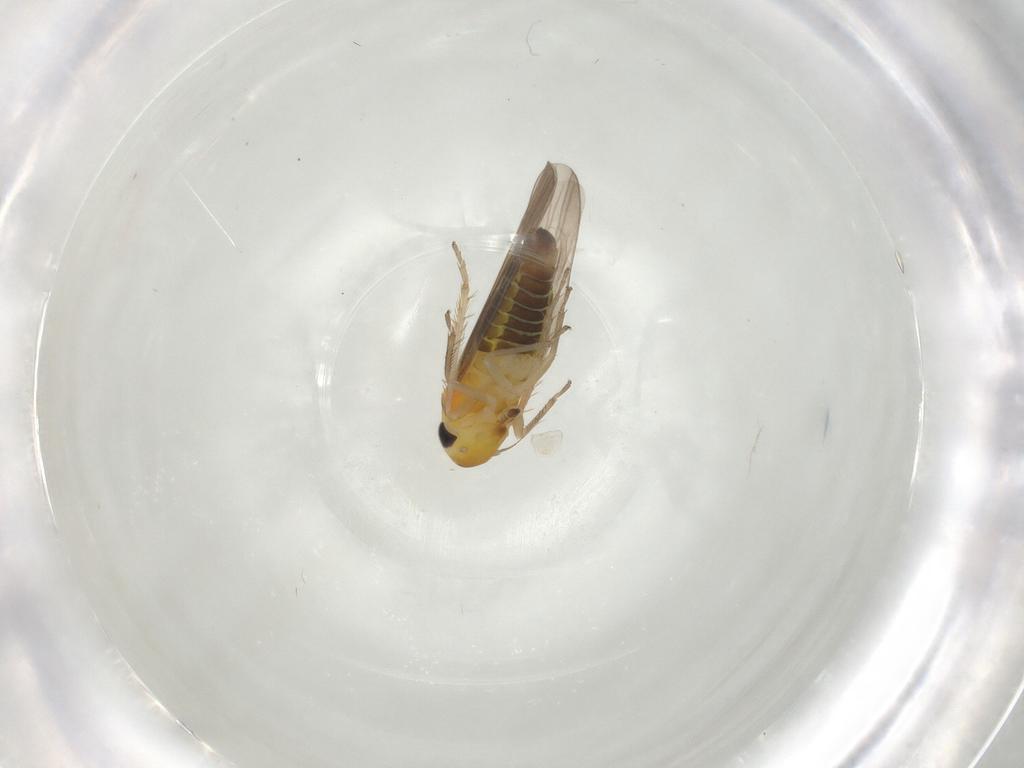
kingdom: Animalia
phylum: Arthropoda
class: Insecta
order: Hemiptera
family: Cicadellidae
